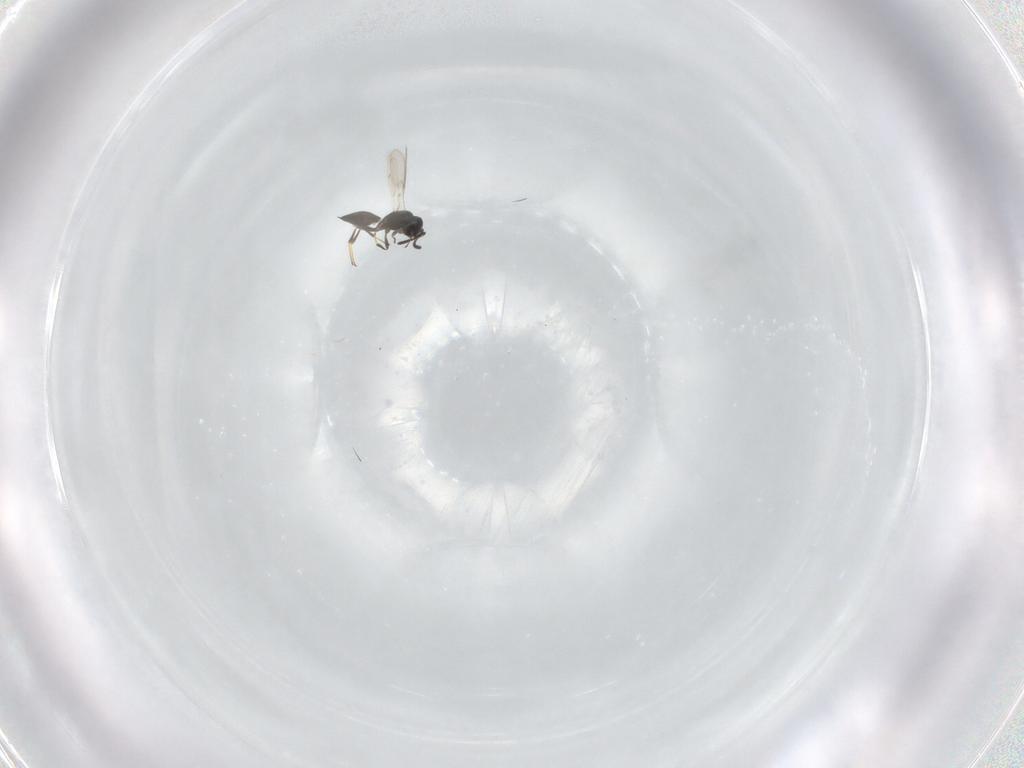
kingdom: Animalia
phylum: Arthropoda
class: Insecta
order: Hymenoptera
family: Scelionidae
